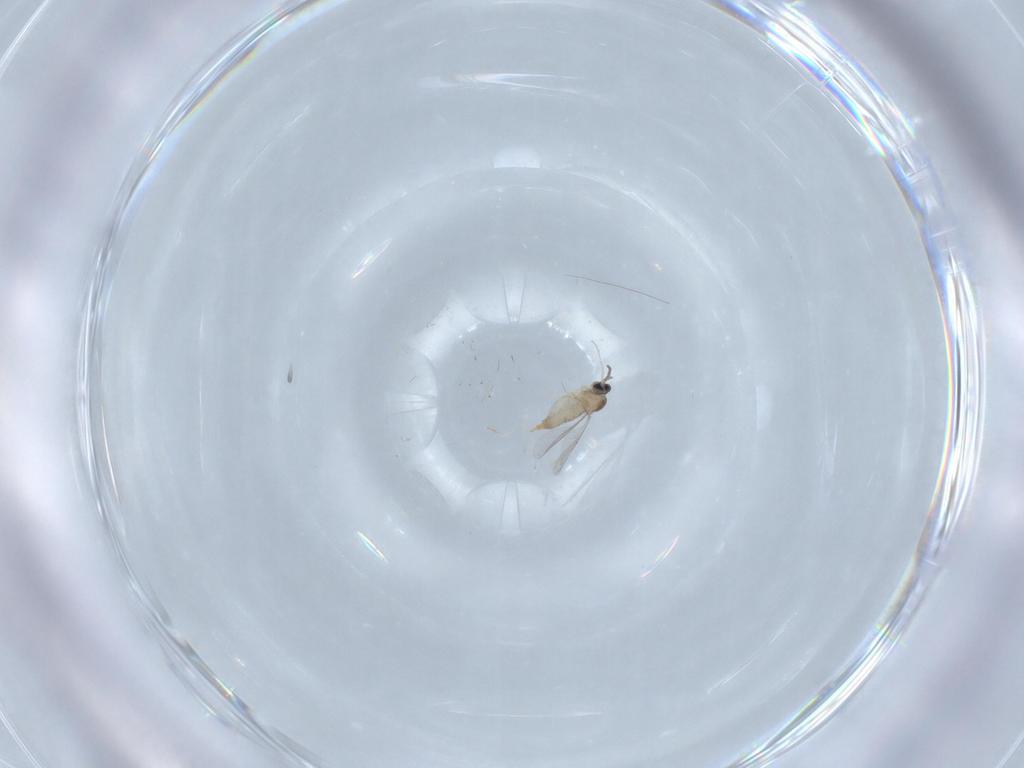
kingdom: Animalia
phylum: Arthropoda
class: Insecta
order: Diptera
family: Cecidomyiidae
